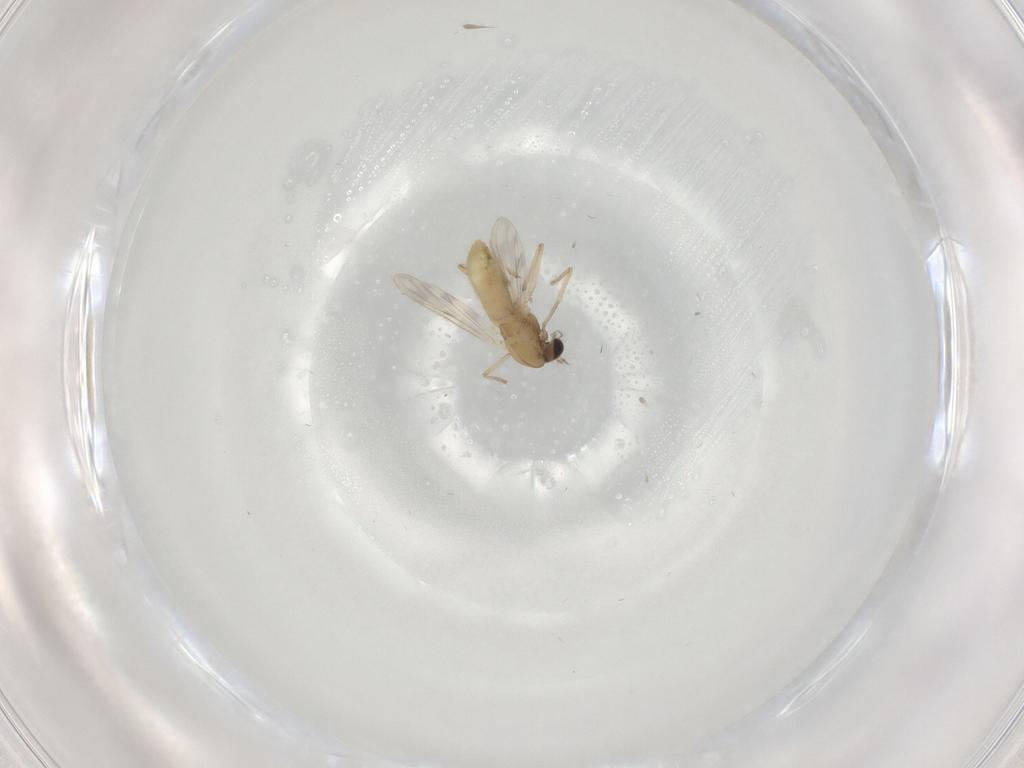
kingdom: Animalia
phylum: Arthropoda
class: Insecta
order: Diptera
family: Chironomidae
